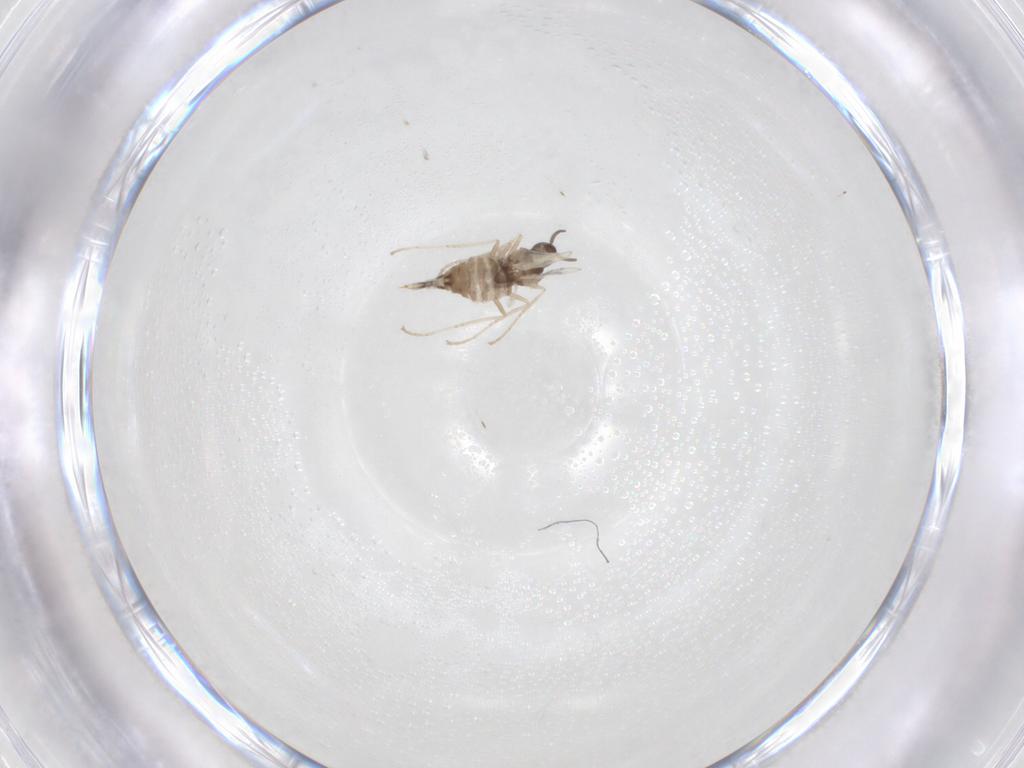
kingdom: Animalia
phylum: Arthropoda
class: Insecta
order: Diptera
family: Cecidomyiidae
